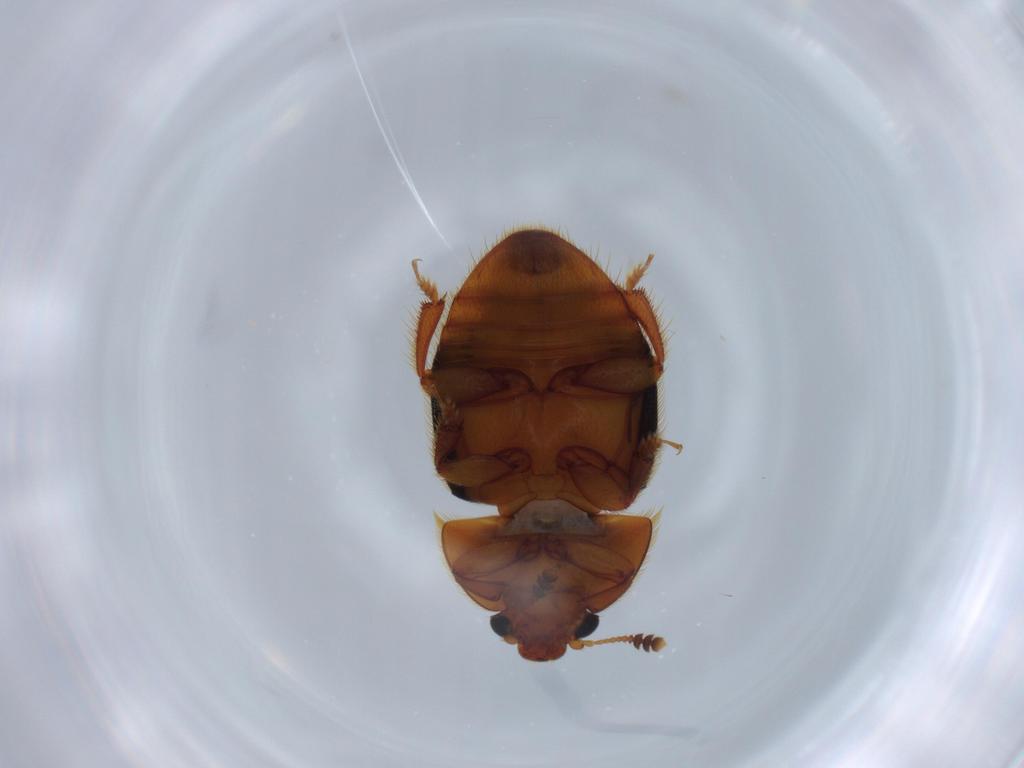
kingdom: Animalia
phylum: Arthropoda
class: Insecta
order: Coleoptera
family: Nitidulidae
